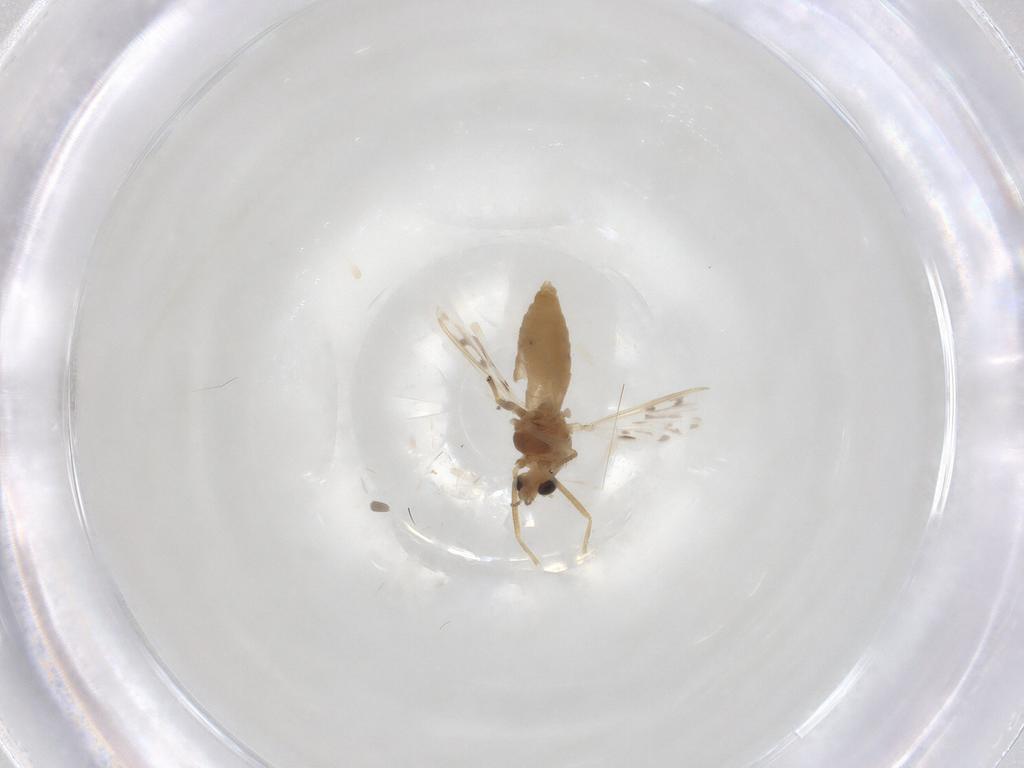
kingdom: Animalia
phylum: Arthropoda
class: Insecta
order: Diptera
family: Chironomidae
